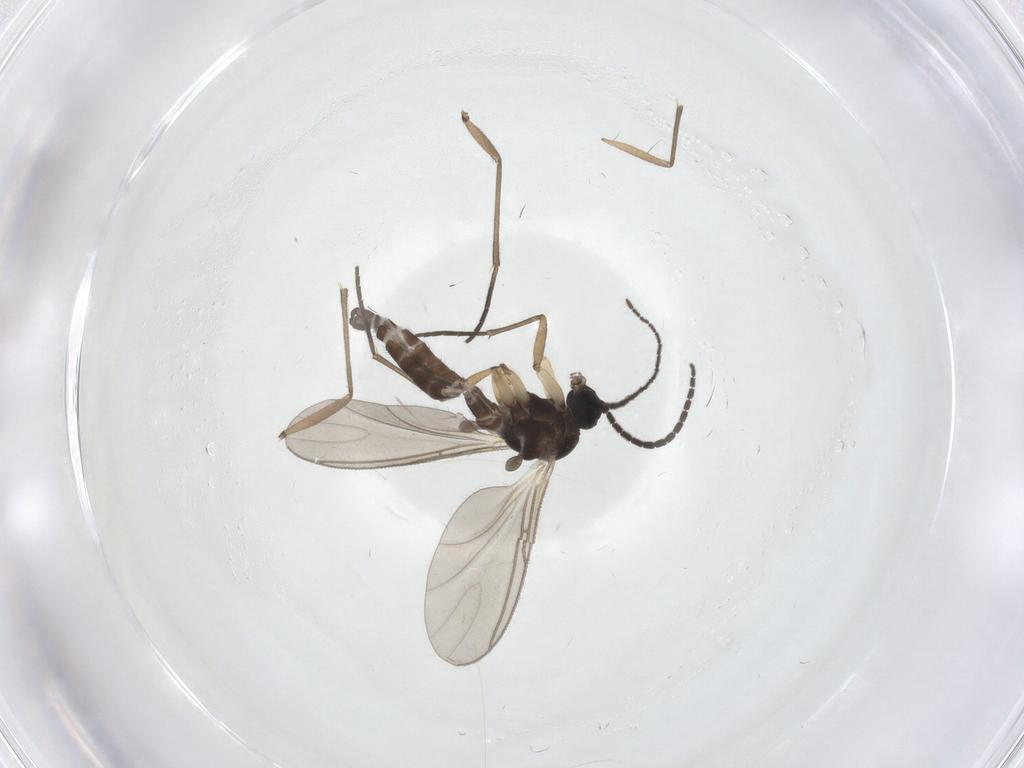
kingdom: Animalia
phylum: Arthropoda
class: Insecta
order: Diptera
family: Sciaridae
